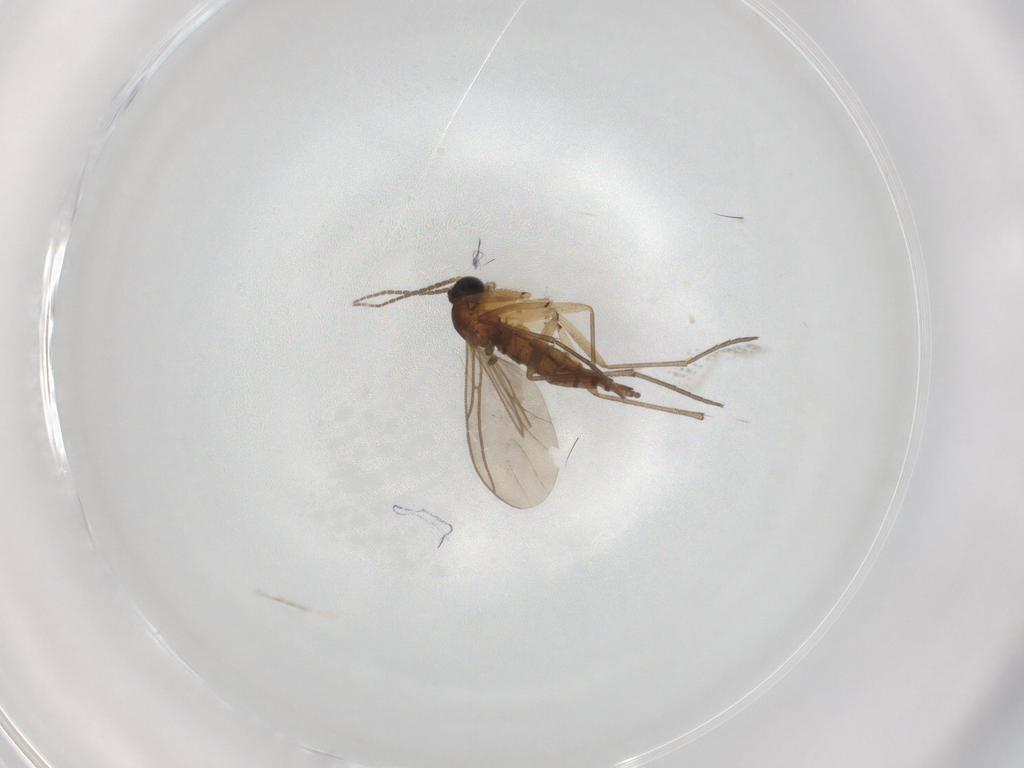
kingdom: Animalia
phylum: Arthropoda
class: Insecta
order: Diptera
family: Sciaridae
